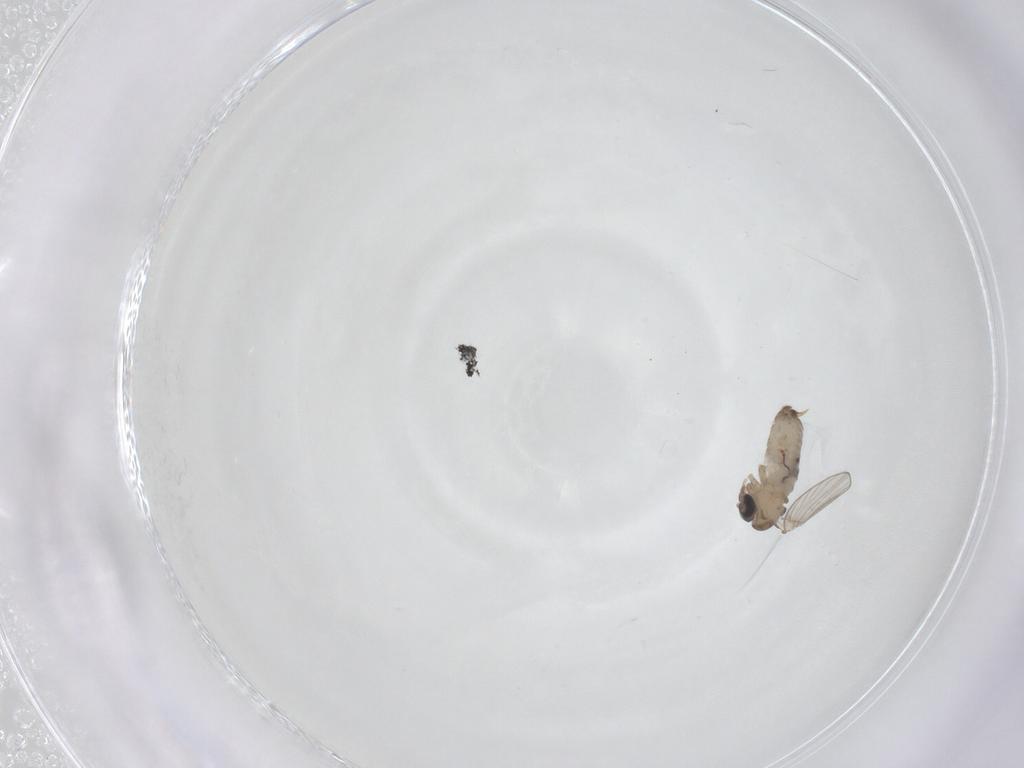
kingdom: Animalia
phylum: Arthropoda
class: Insecta
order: Diptera
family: Psychodidae
